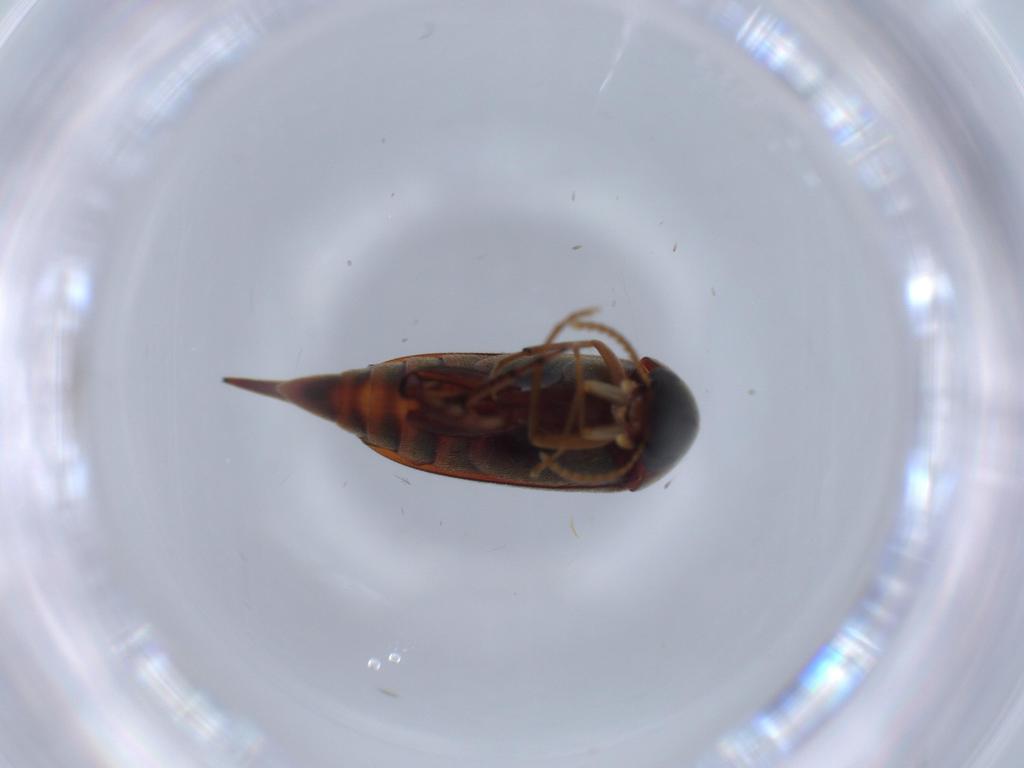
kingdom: Animalia
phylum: Arthropoda
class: Insecta
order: Coleoptera
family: Mordellidae
